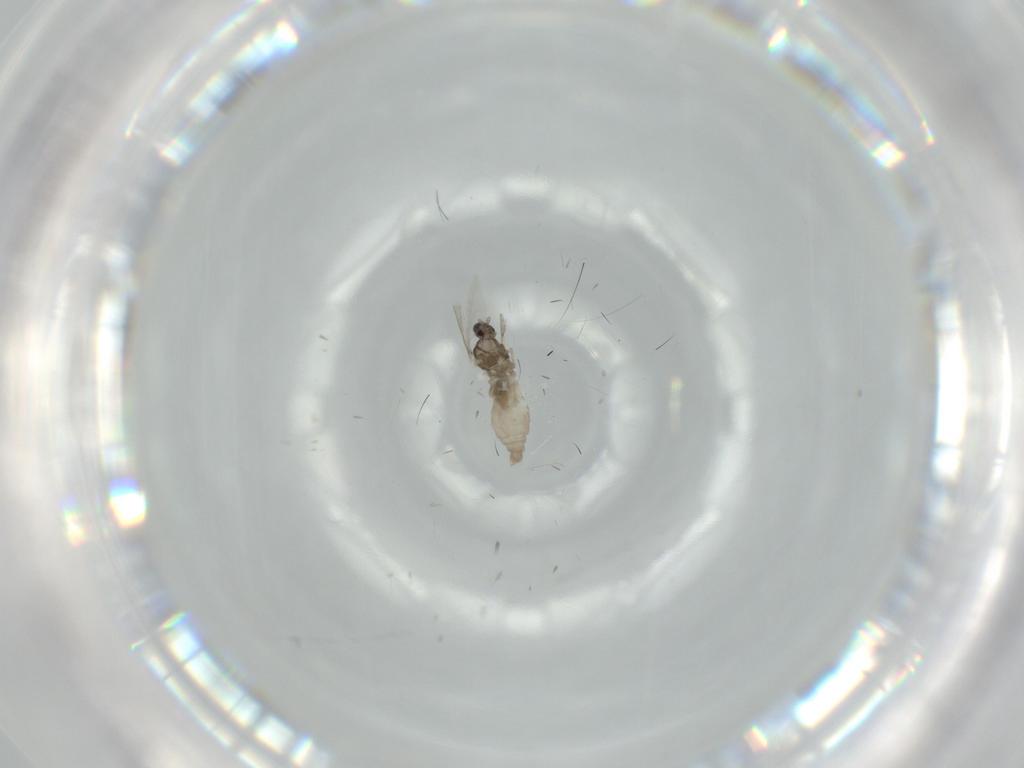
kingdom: Animalia
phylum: Arthropoda
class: Insecta
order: Diptera
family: Cecidomyiidae
